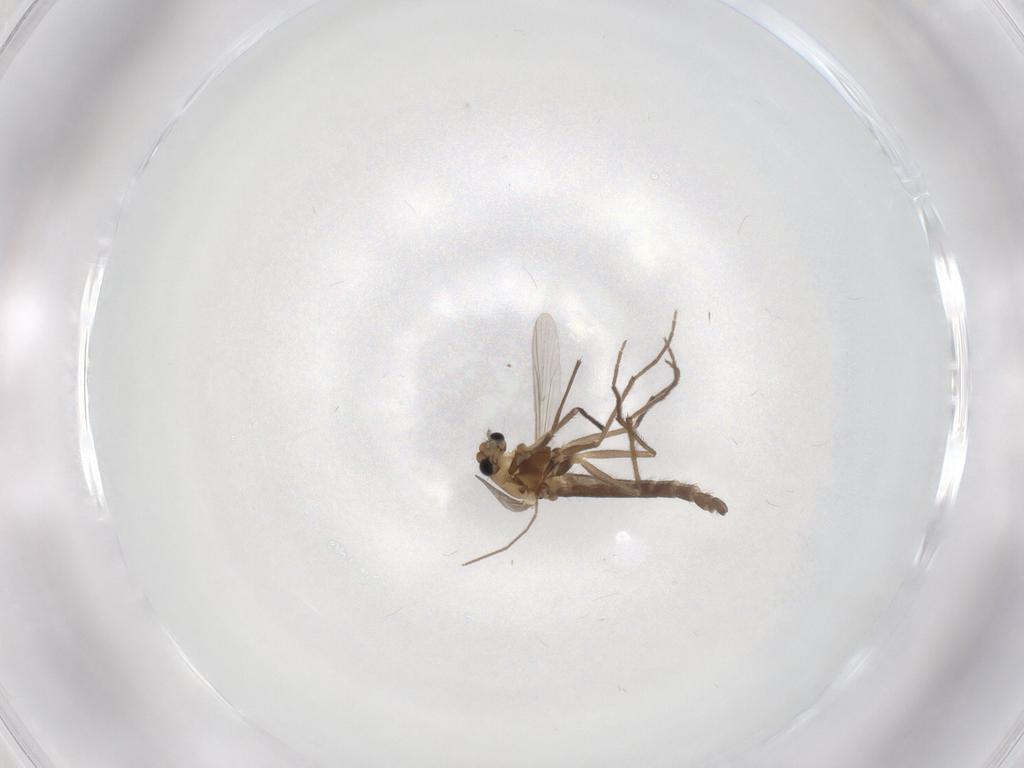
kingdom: Animalia
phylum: Arthropoda
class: Insecta
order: Diptera
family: Chironomidae
